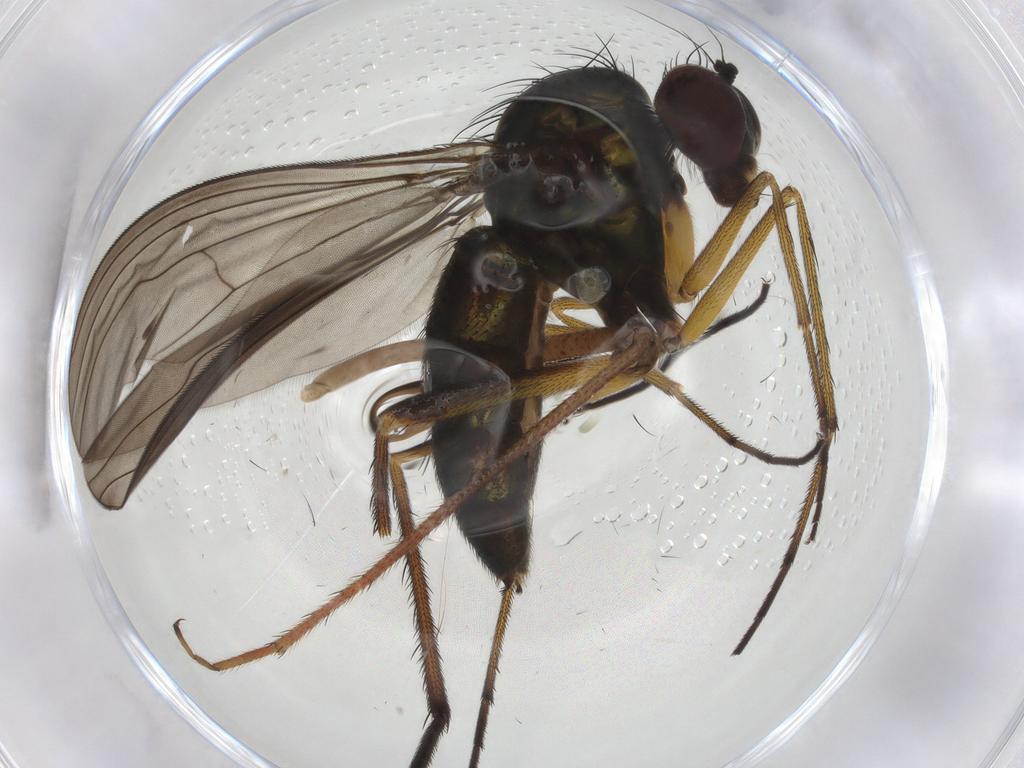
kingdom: Animalia
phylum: Arthropoda
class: Insecta
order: Diptera
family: Dolichopodidae
